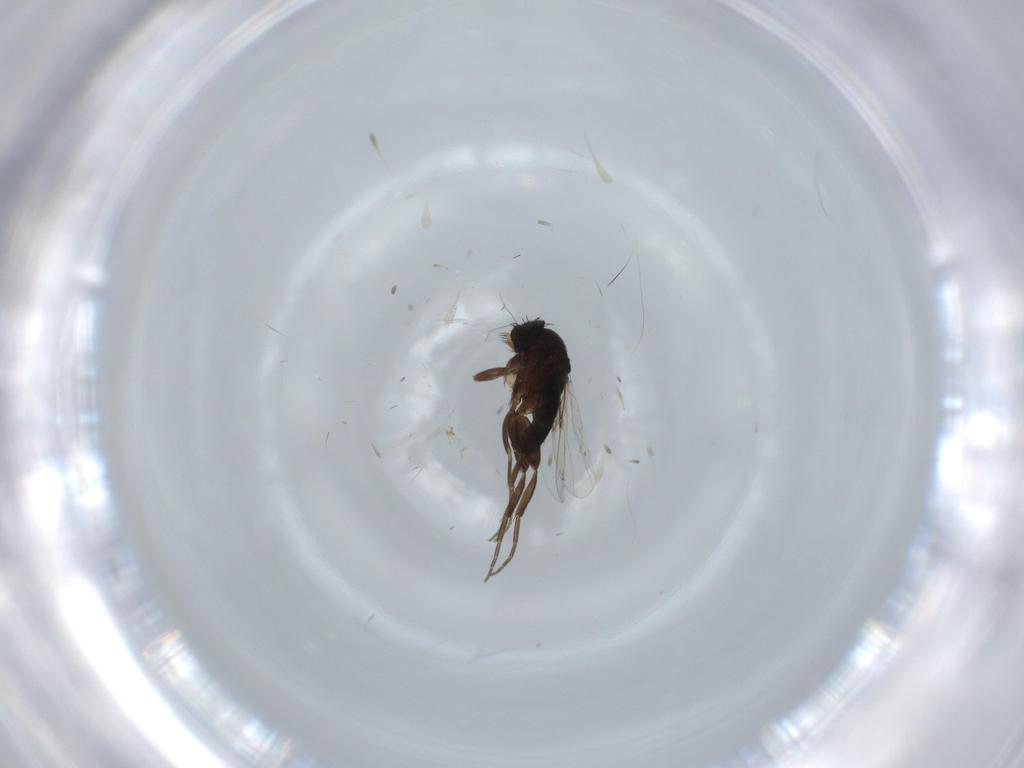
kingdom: Animalia
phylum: Arthropoda
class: Insecta
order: Diptera
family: Phoridae
